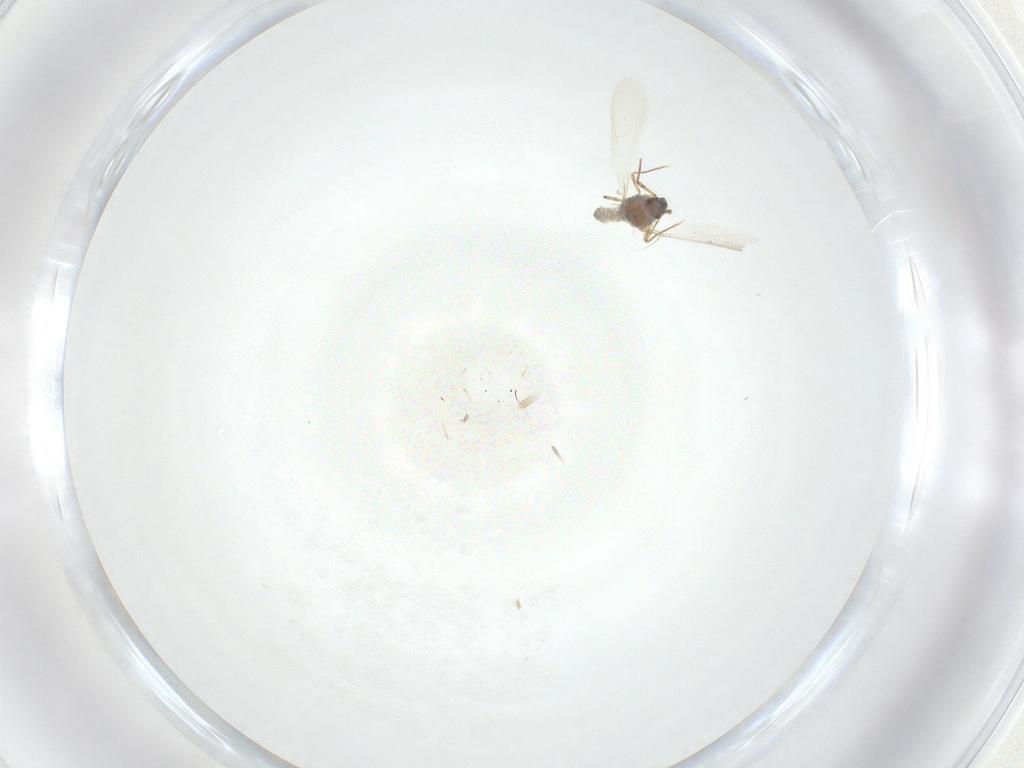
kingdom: Animalia
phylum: Arthropoda
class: Insecta
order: Hemiptera
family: Pseudococcidae
